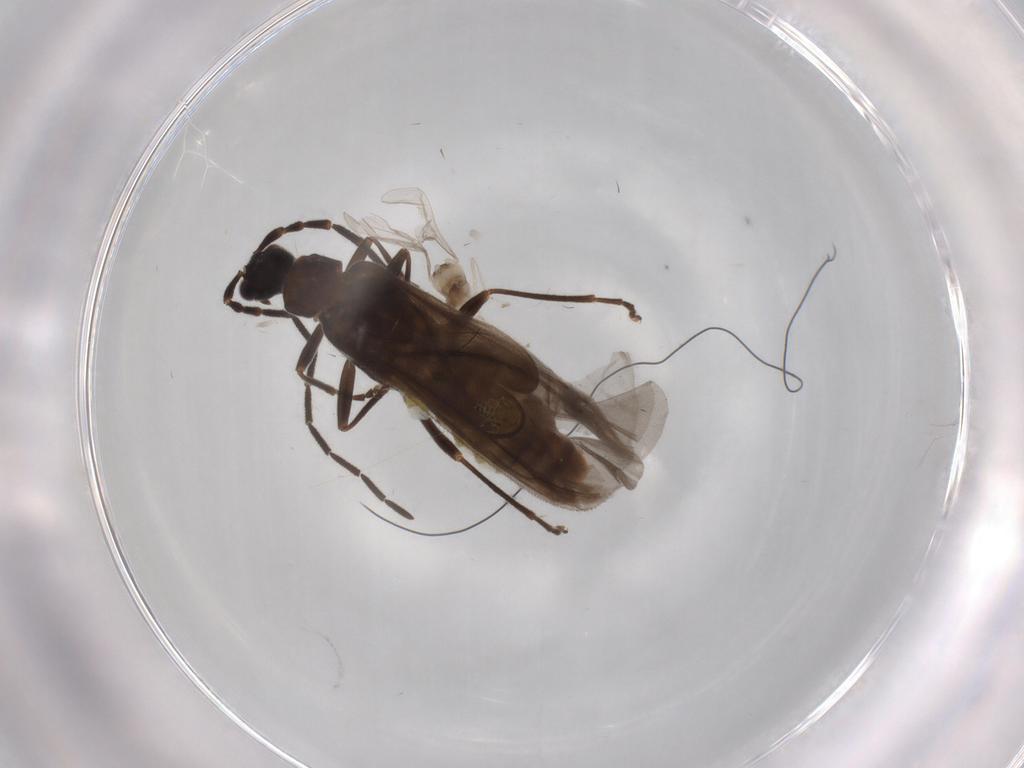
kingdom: Animalia
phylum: Arthropoda
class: Insecta
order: Coleoptera
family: Cantharidae
